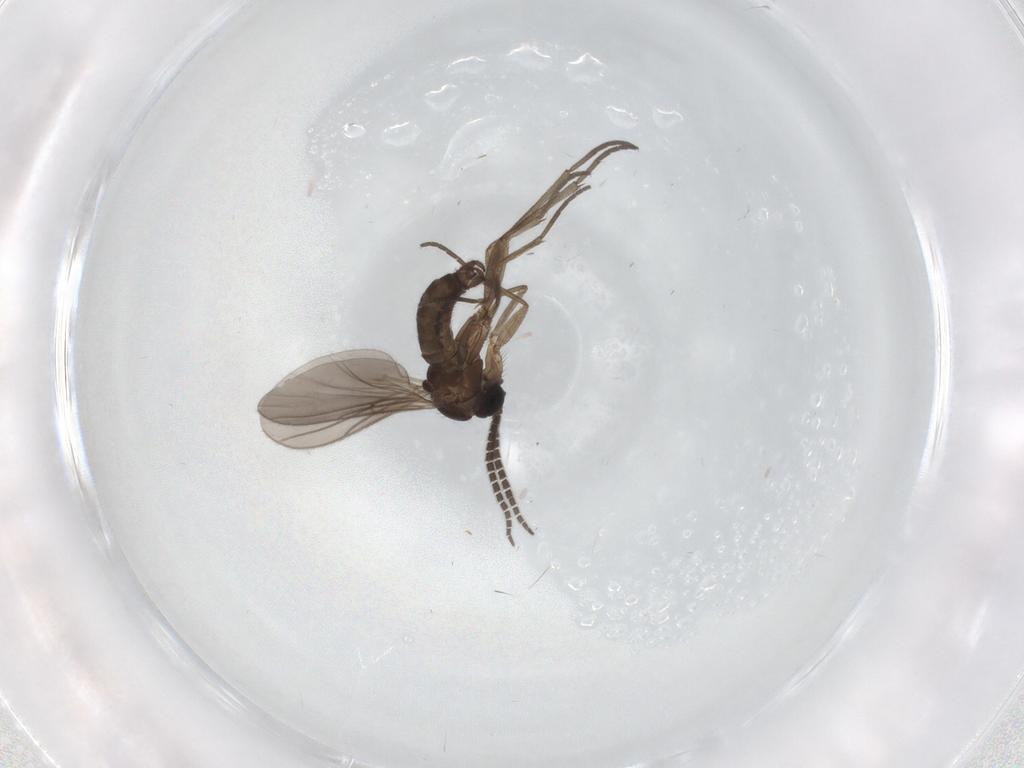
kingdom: Animalia
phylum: Arthropoda
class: Insecta
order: Diptera
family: Sciaridae
